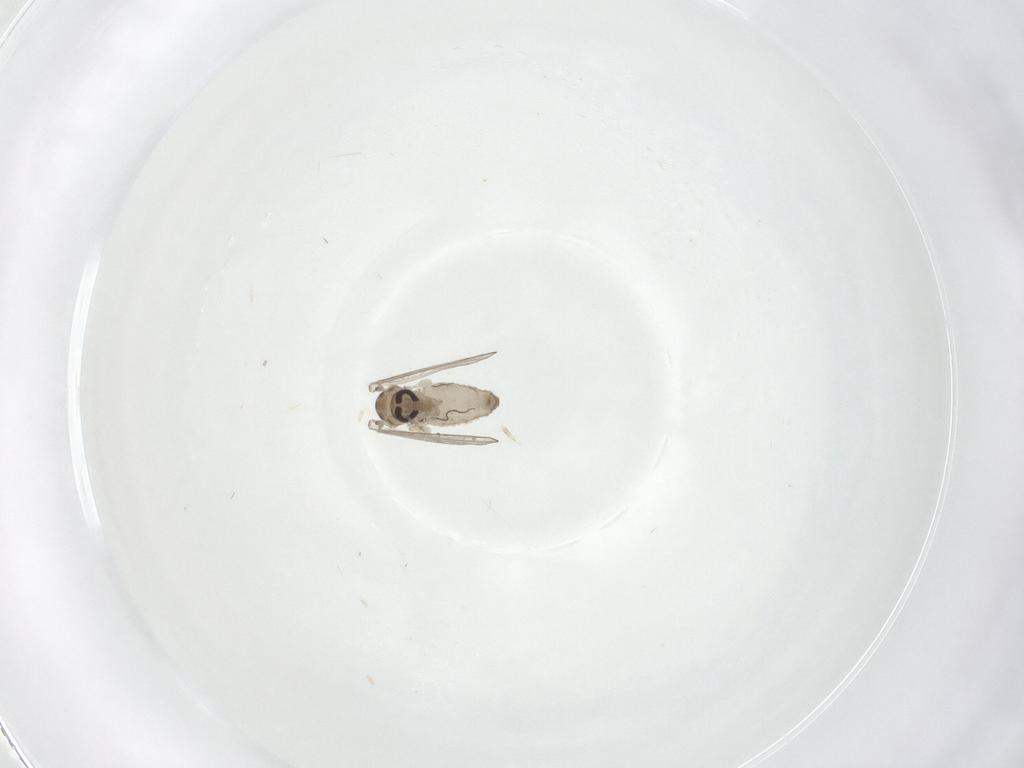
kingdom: Animalia
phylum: Arthropoda
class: Insecta
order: Diptera
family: Psychodidae
